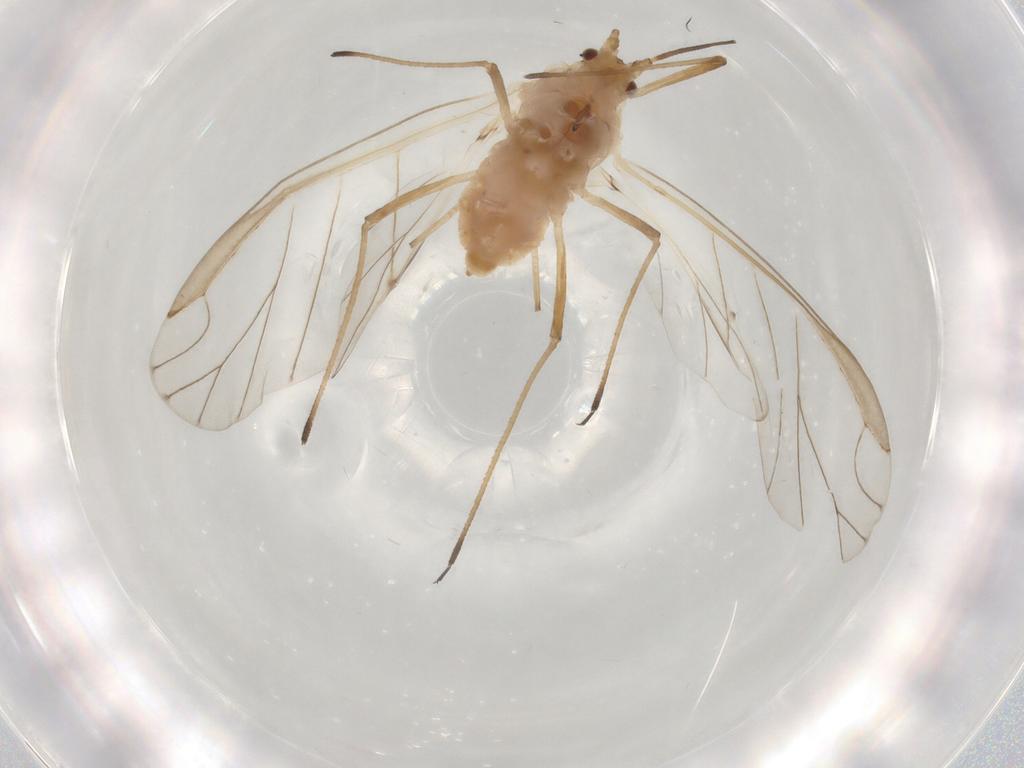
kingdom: Animalia
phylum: Arthropoda
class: Insecta
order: Hemiptera
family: Aphididae
